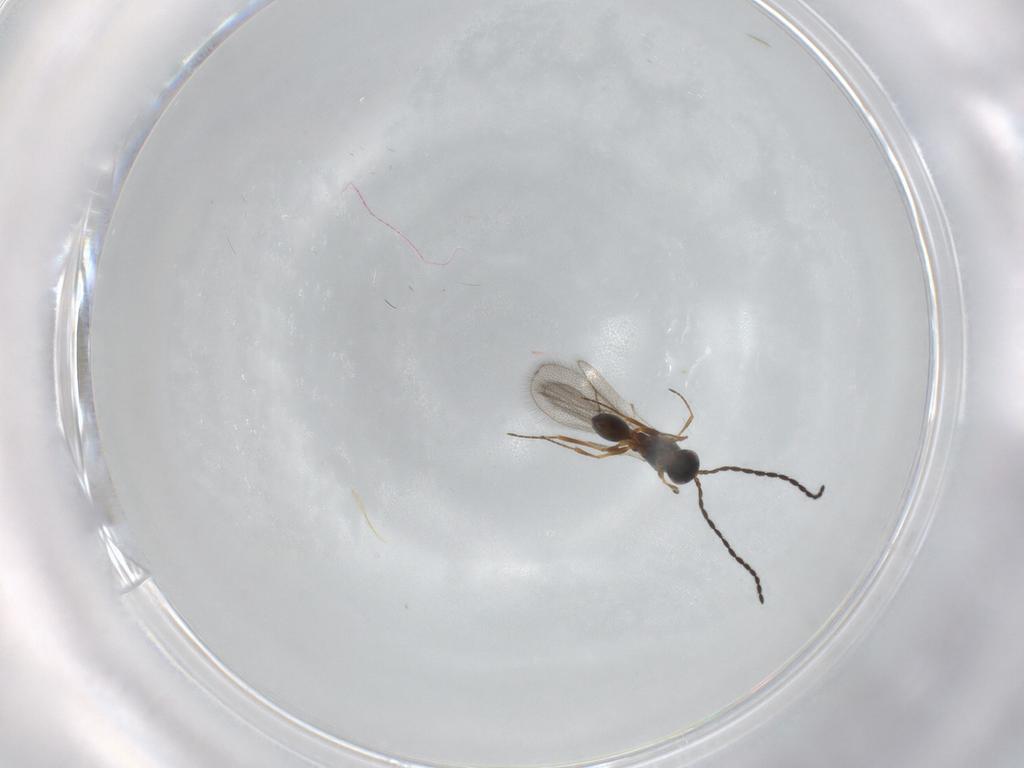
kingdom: Animalia
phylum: Arthropoda
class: Insecta
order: Hymenoptera
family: Figitidae
